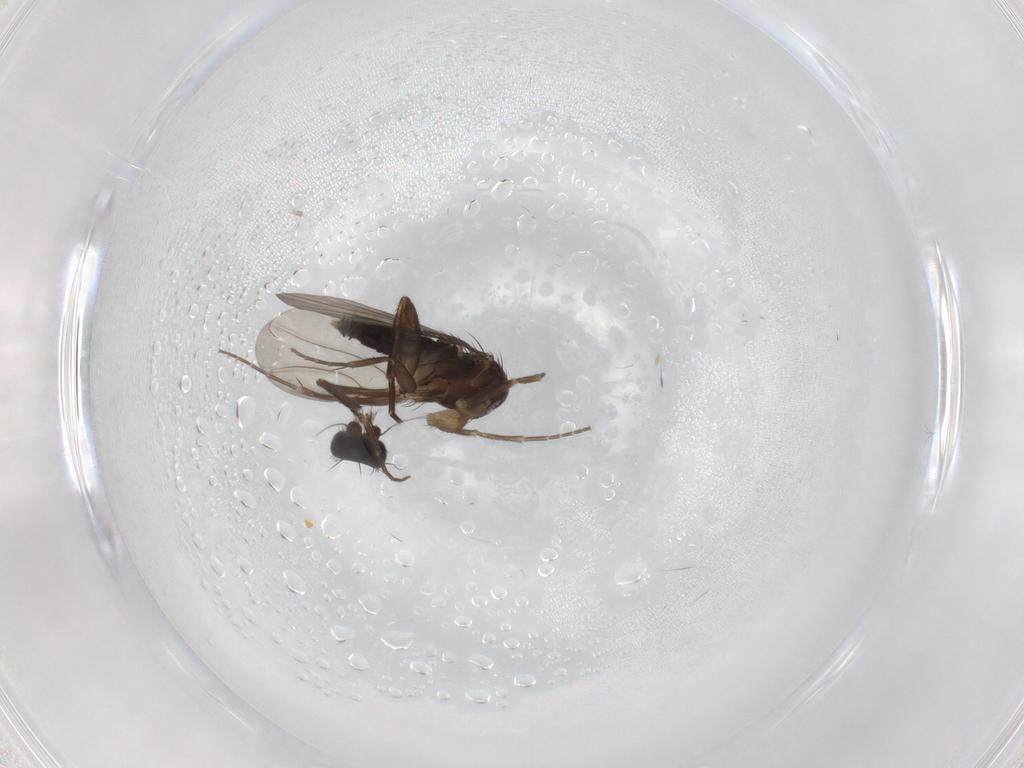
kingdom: Animalia
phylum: Arthropoda
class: Insecta
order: Diptera
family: Phoridae
